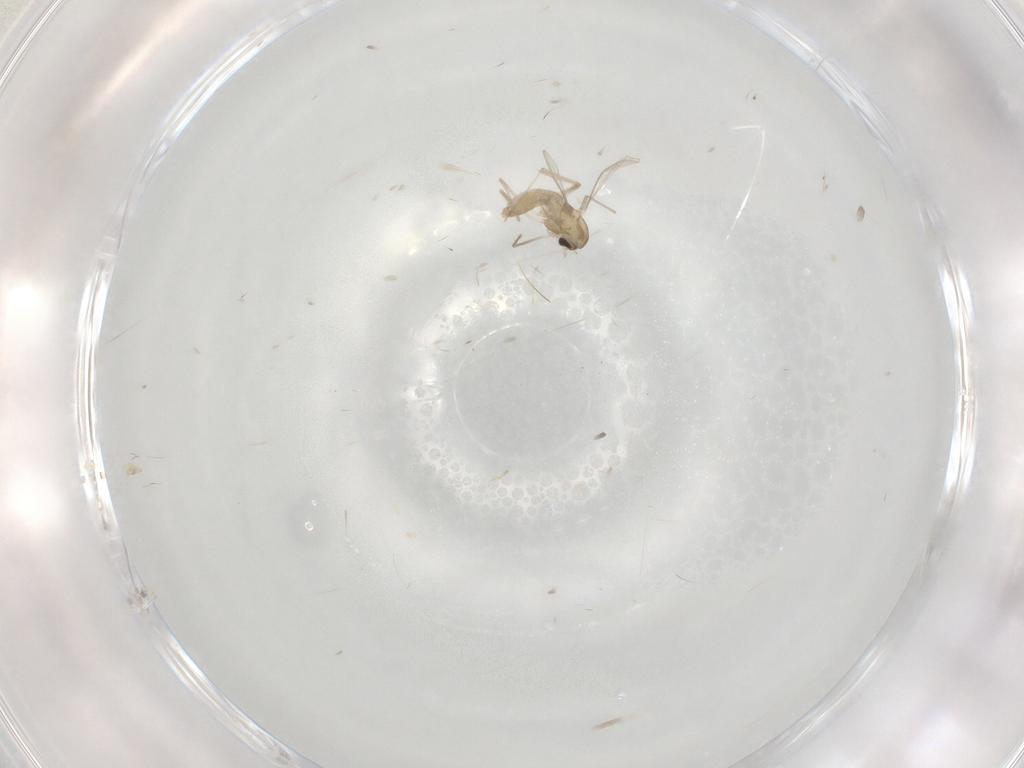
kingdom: Animalia
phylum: Arthropoda
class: Insecta
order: Diptera
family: Chironomidae
